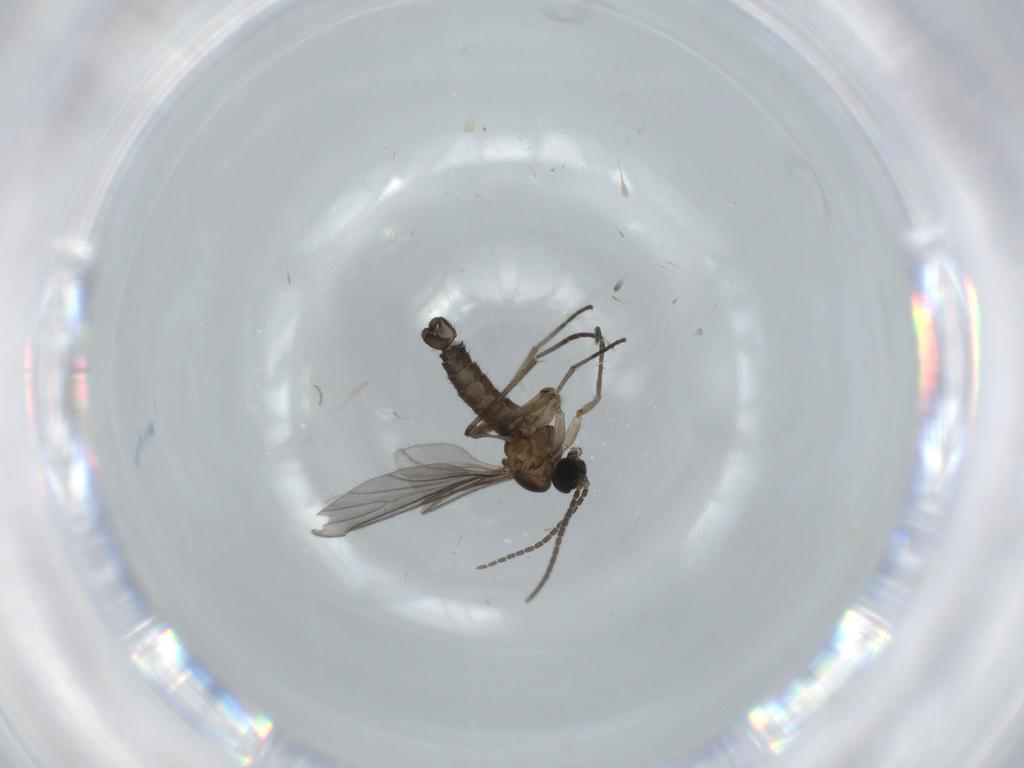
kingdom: Animalia
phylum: Arthropoda
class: Insecta
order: Diptera
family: Sciaridae
